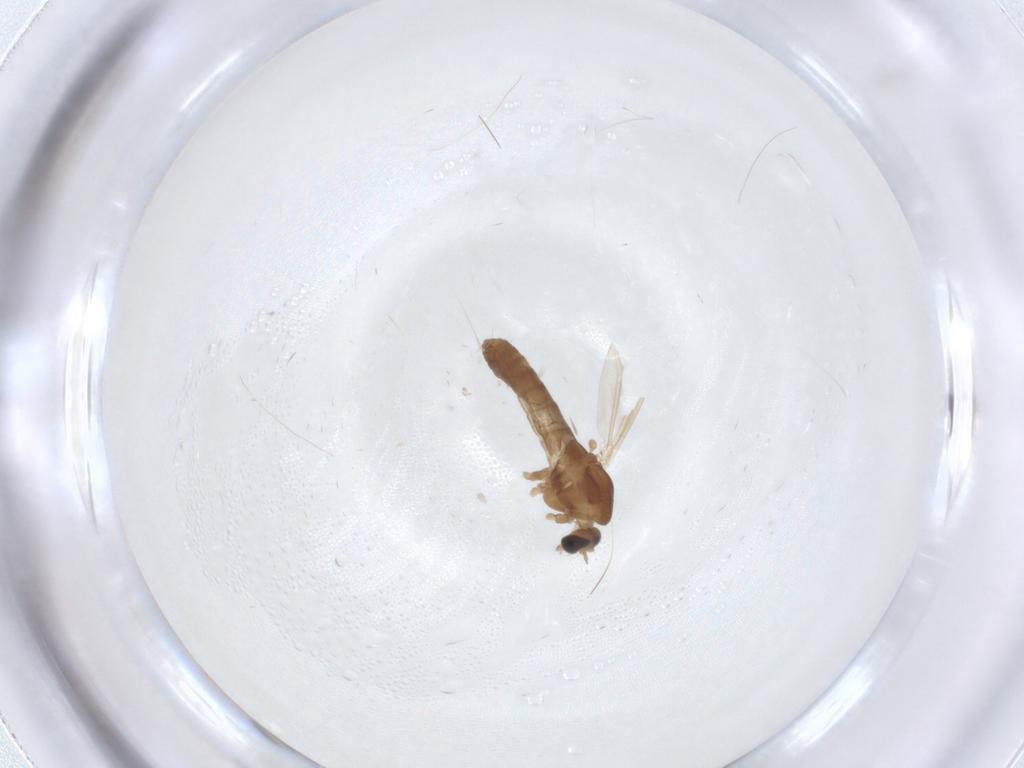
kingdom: Animalia
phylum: Arthropoda
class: Insecta
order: Diptera
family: Chironomidae
